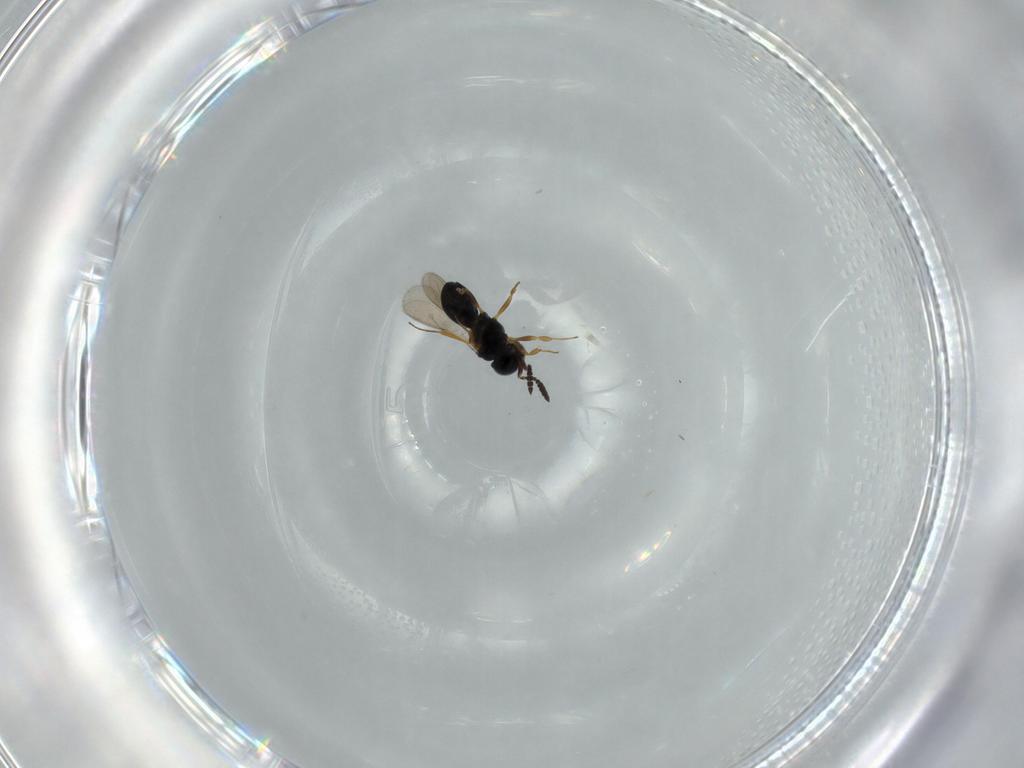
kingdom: Animalia
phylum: Arthropoda
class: Insecta
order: Hymenoptera
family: Scelionidae
